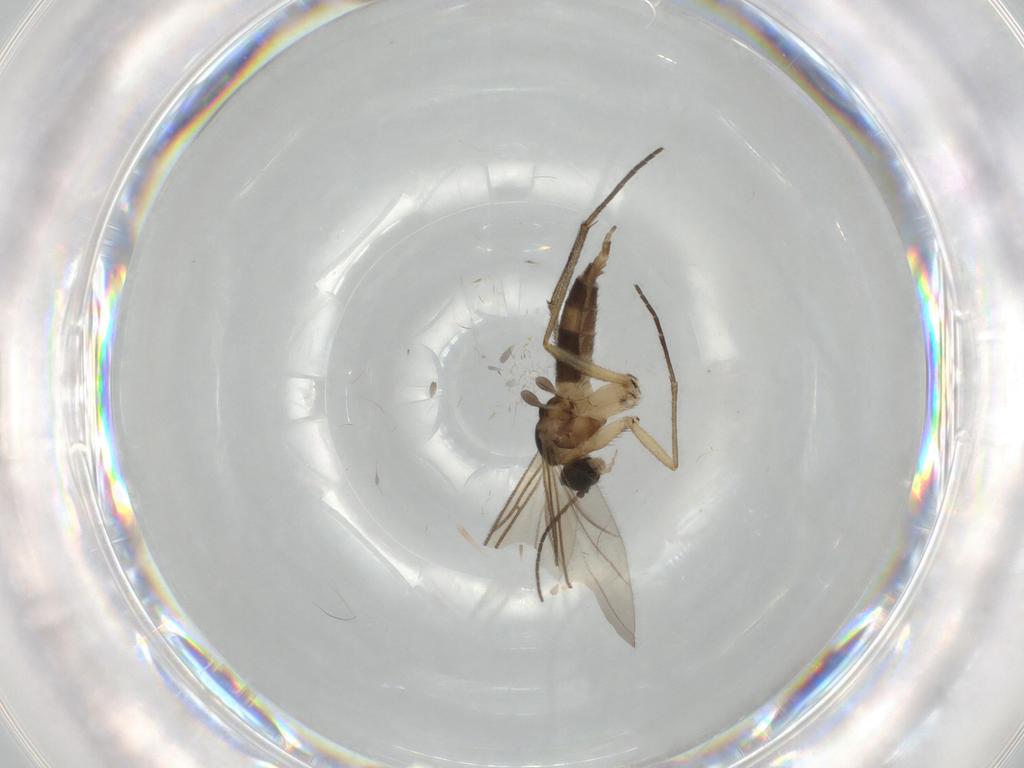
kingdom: Animalia
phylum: Arthropoda
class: Insecta
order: Diptera
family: Sciaridae
